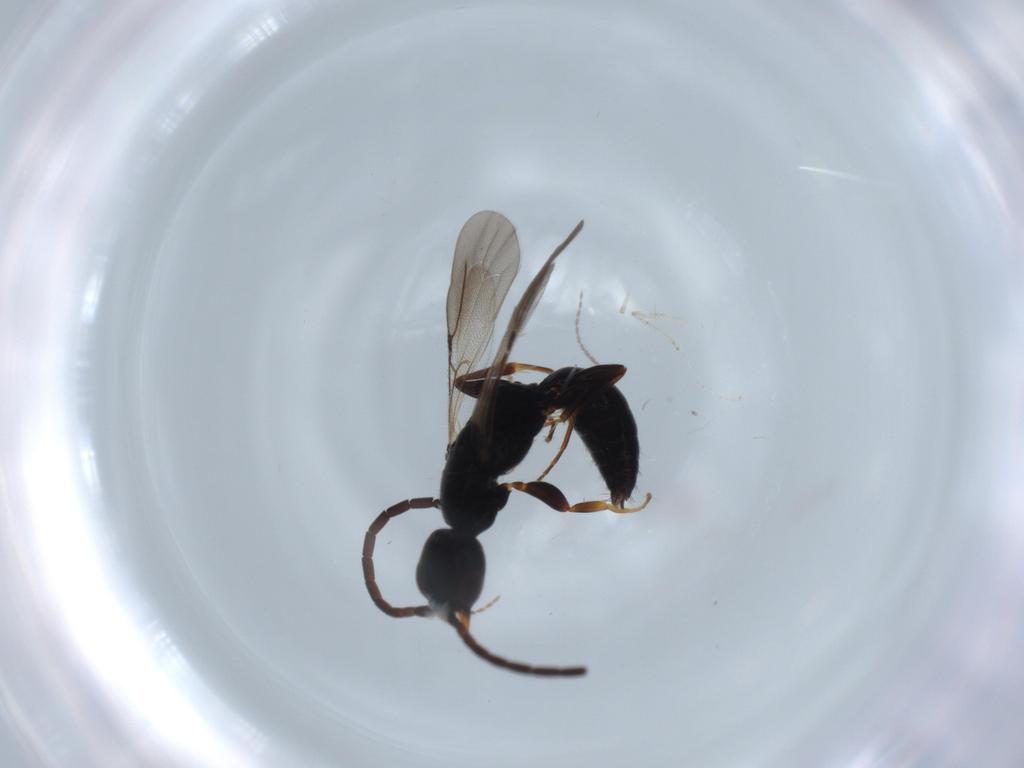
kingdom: Animalia
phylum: Arthropoda
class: Insecta
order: Hymenoptera
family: Bethylidae
